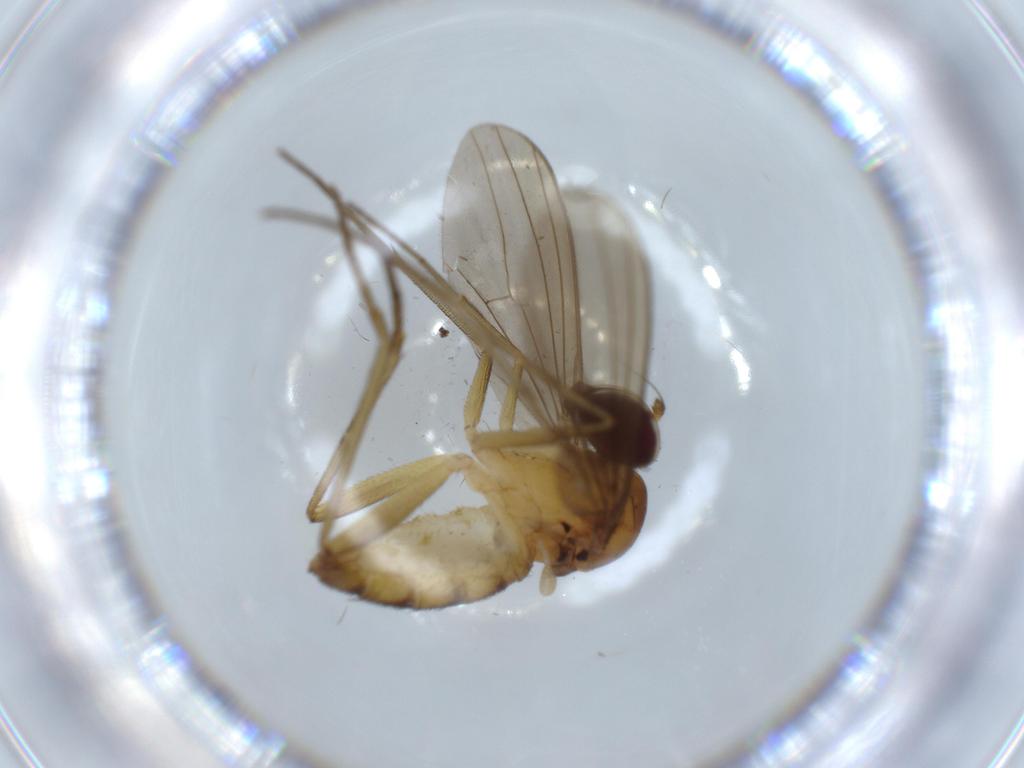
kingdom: Animalia
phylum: Arthropoda
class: Insecta
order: Diptera
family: Dolichopodidae
